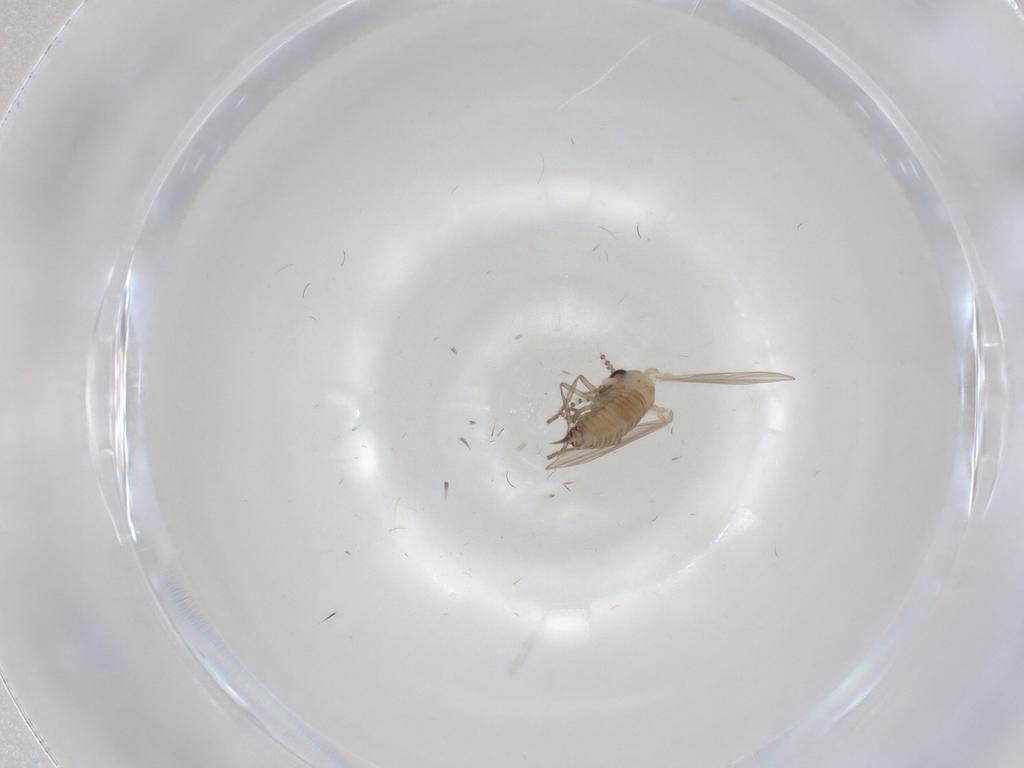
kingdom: Animalia
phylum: Arthropoda
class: Insecta
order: Diptera
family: Psychodidae
